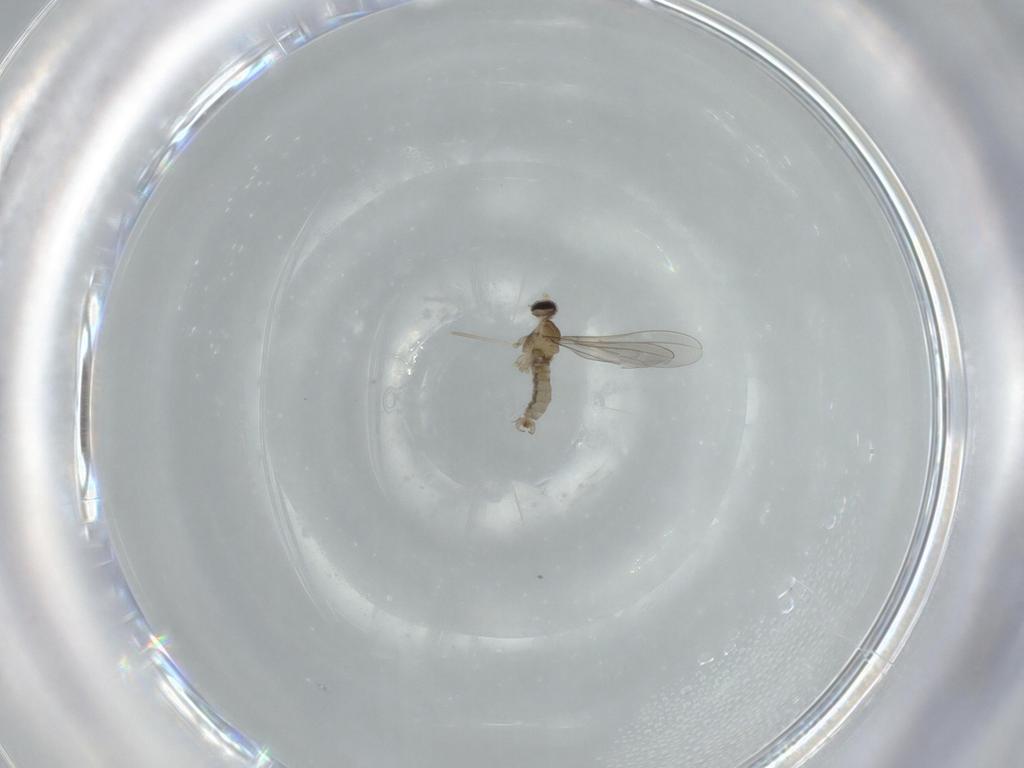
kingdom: Animalia
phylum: Arthropoda
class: Insecta
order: Diptera
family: Cecidomyiidae
